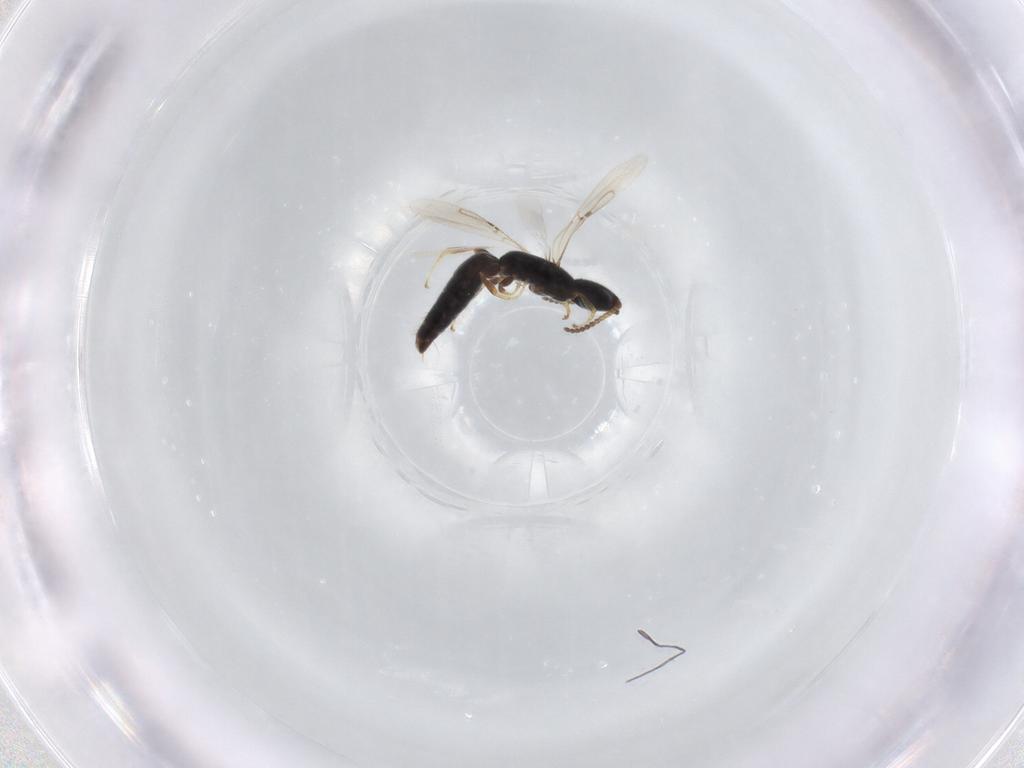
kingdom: Animalia
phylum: Arthropoda
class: Insecta
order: Hymenoptera
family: Bethylidae
